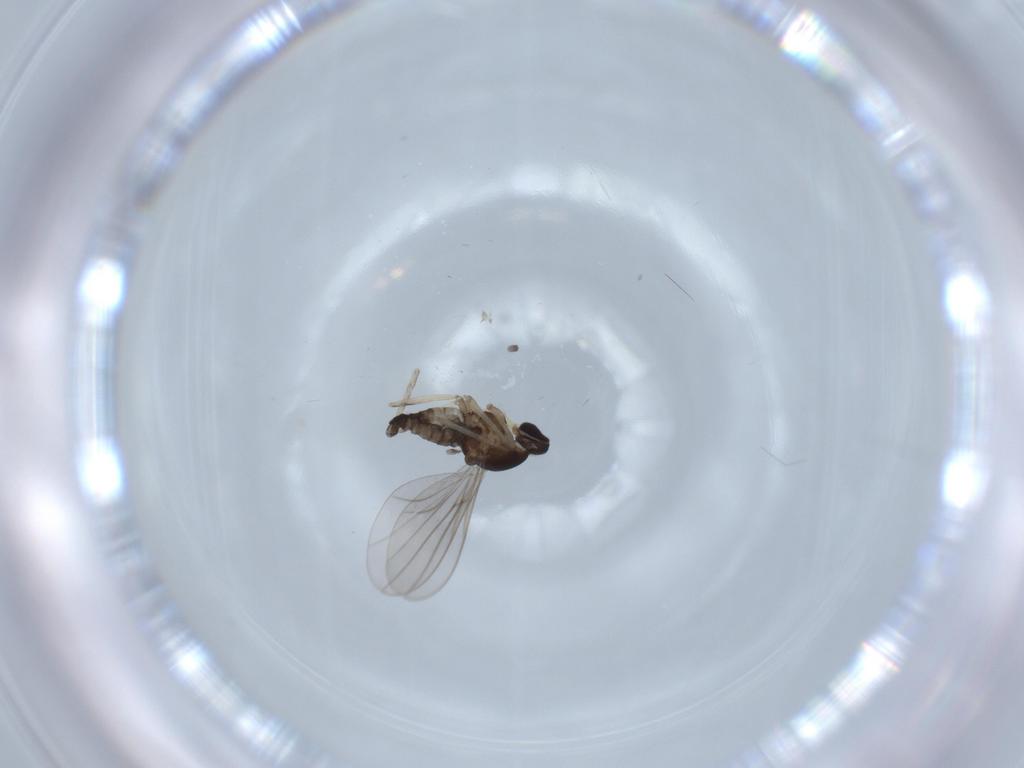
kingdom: Animalia
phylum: Arthropoda
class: Insecta
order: Diptera
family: Cecidomyiidae
